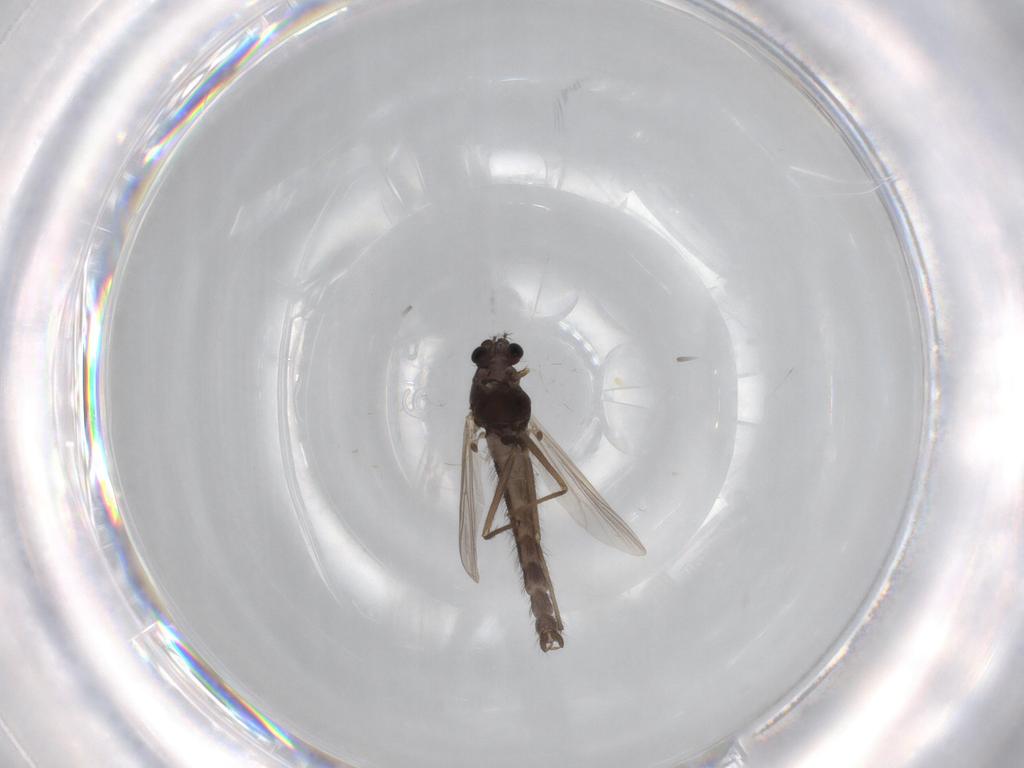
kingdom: Animalia
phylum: Arthropoda
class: Insecta
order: Diptera
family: Chironomidae
